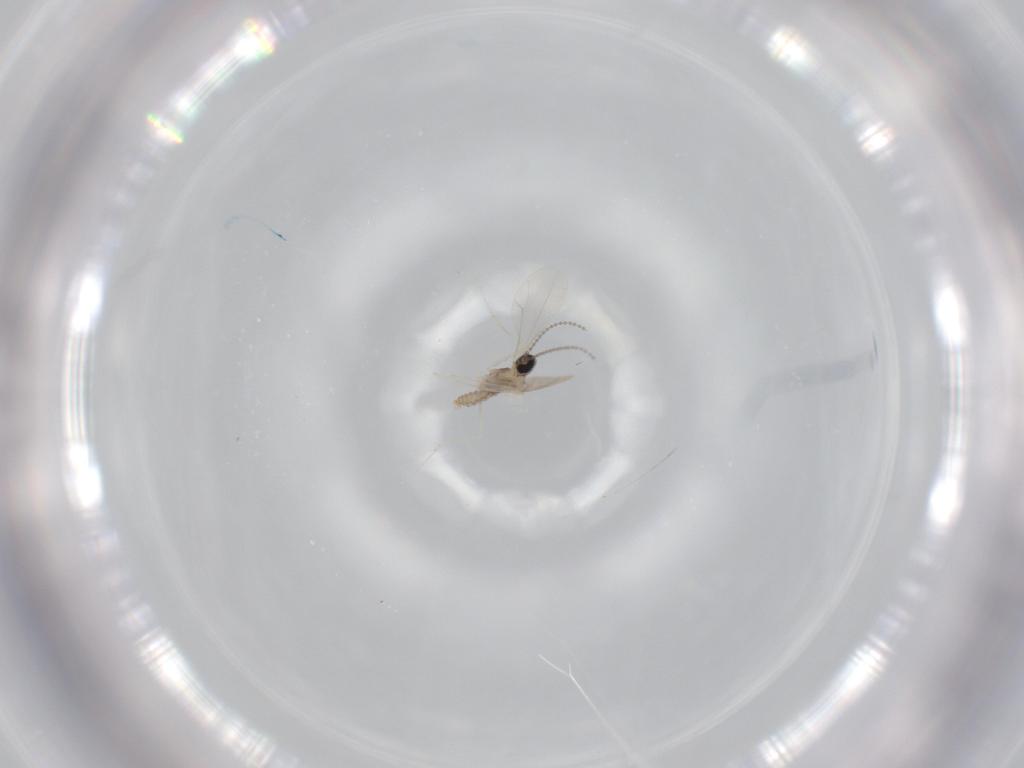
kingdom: Animalia
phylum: Arthropoda
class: Insecta
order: Diptera
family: Cecidomyiidae
